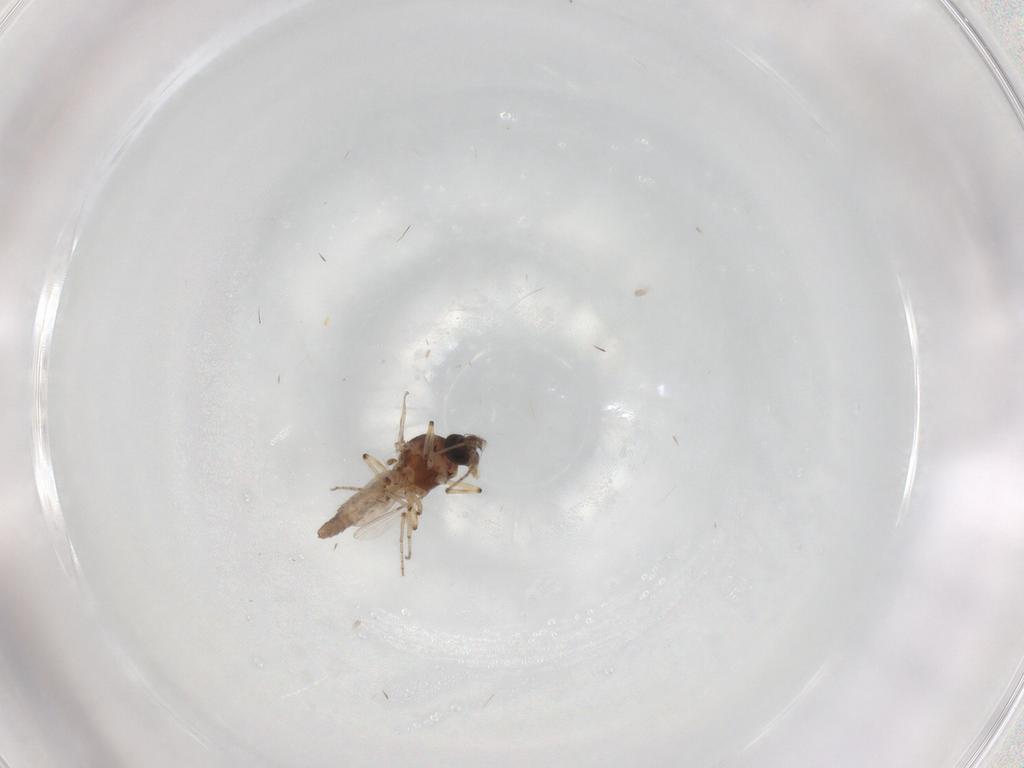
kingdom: Animalia
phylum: Arthropoda
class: Insecta
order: Diptera
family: Ceratopogonidae
